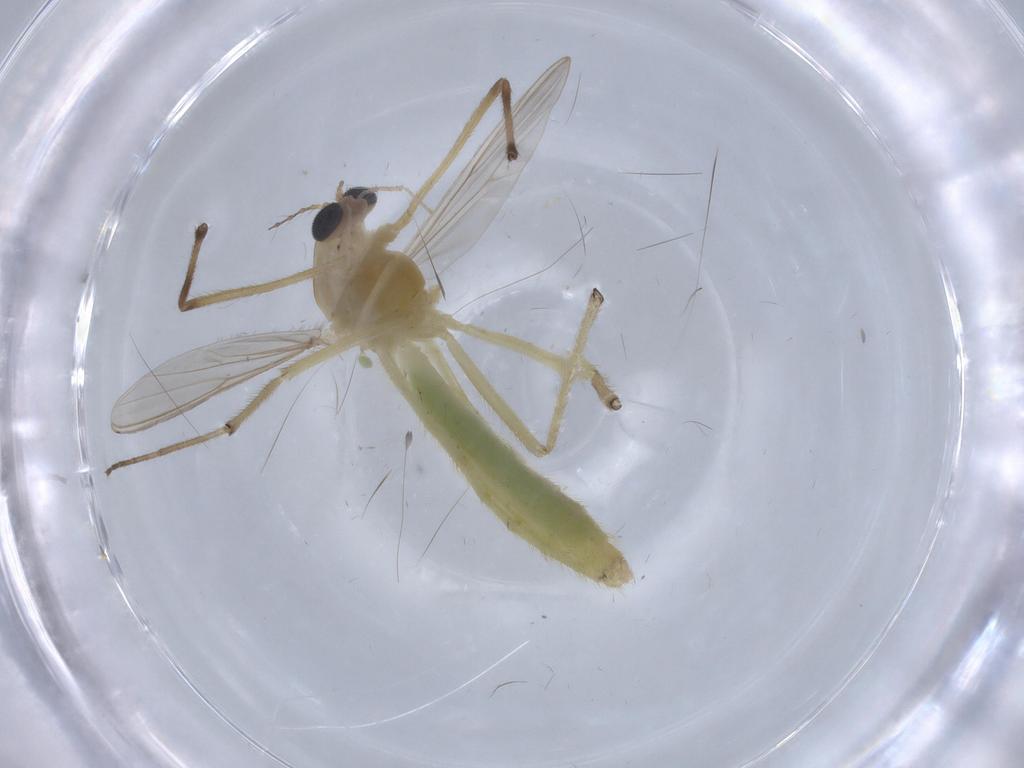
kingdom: Animalia
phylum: Arthropoda
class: Insecta
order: Diptera
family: Chironomidae
